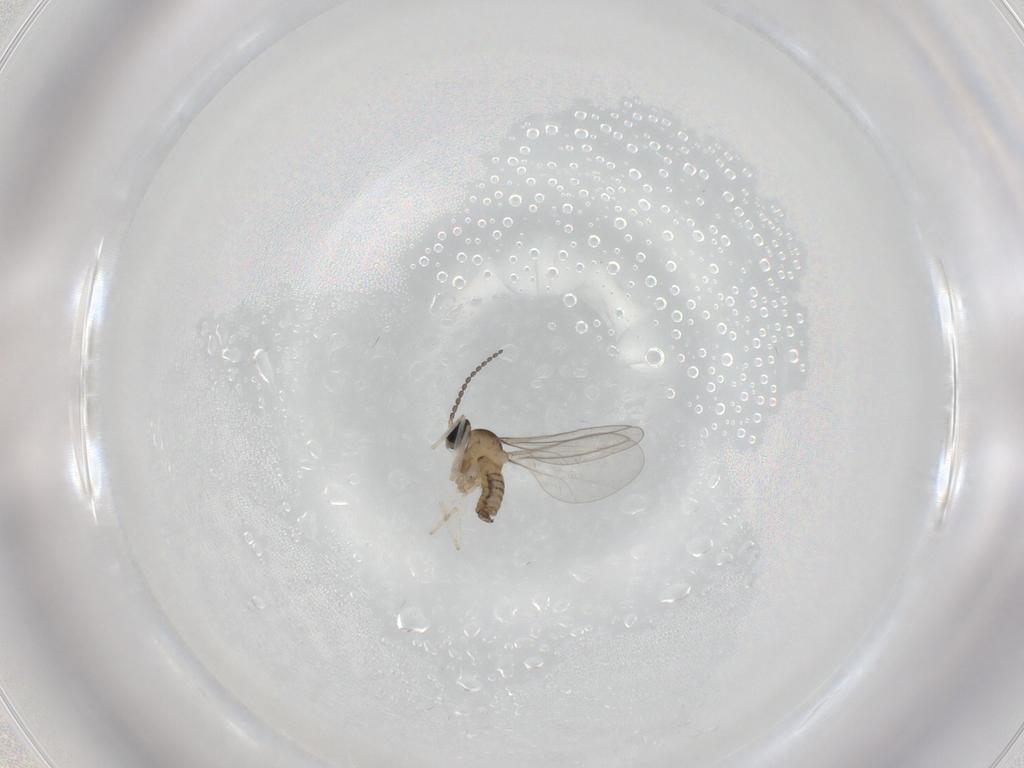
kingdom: Animalia
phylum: Arthropoda
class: Insecta
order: Diptera
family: Cecidomyiidae
